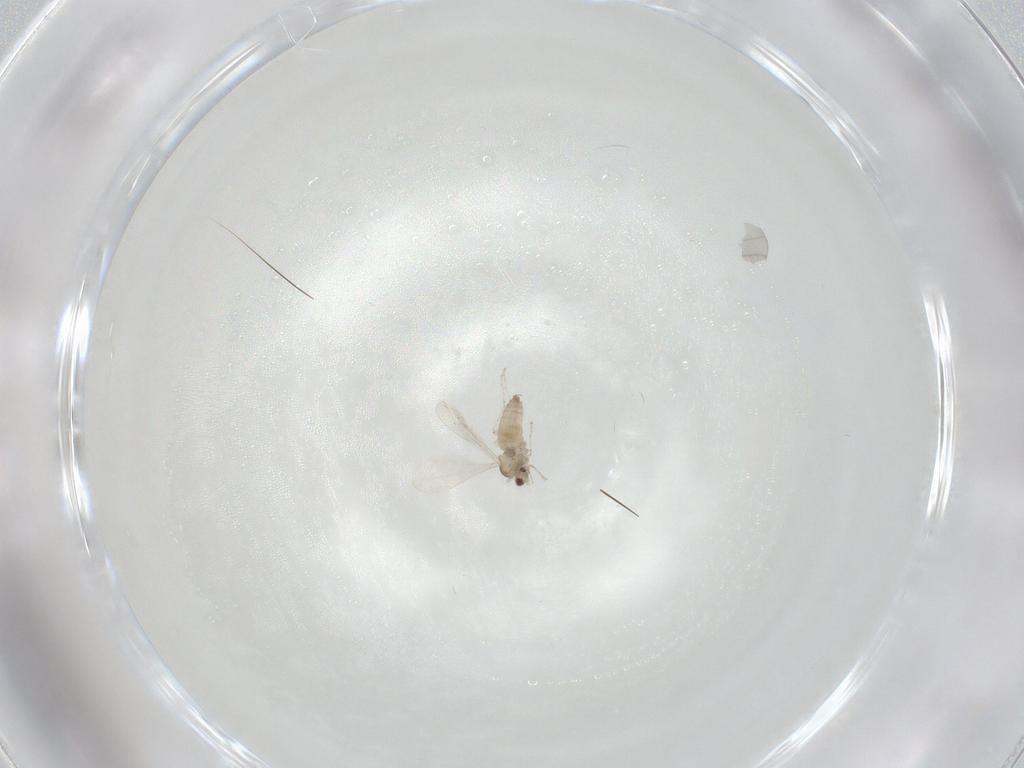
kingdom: Animalia
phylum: Arthropoda
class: Insecta
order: Diptera
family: Cecidomyiidae
